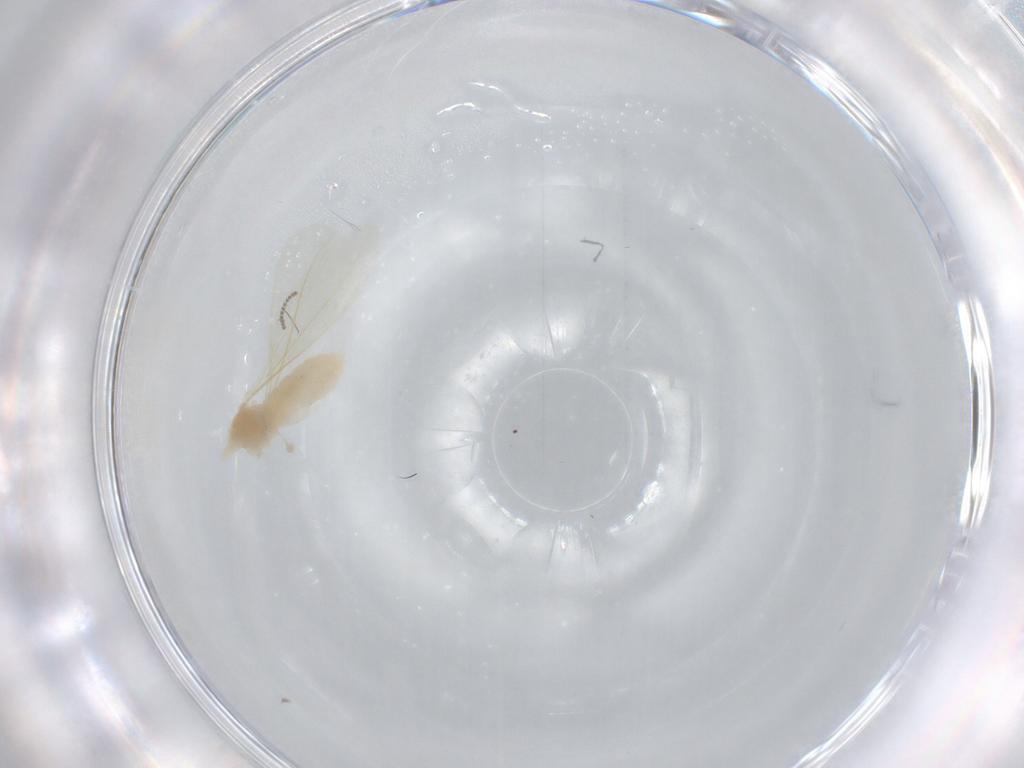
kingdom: Animalia
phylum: Arthropoda
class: Insecta
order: Diptera
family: Cecidomyiidae
